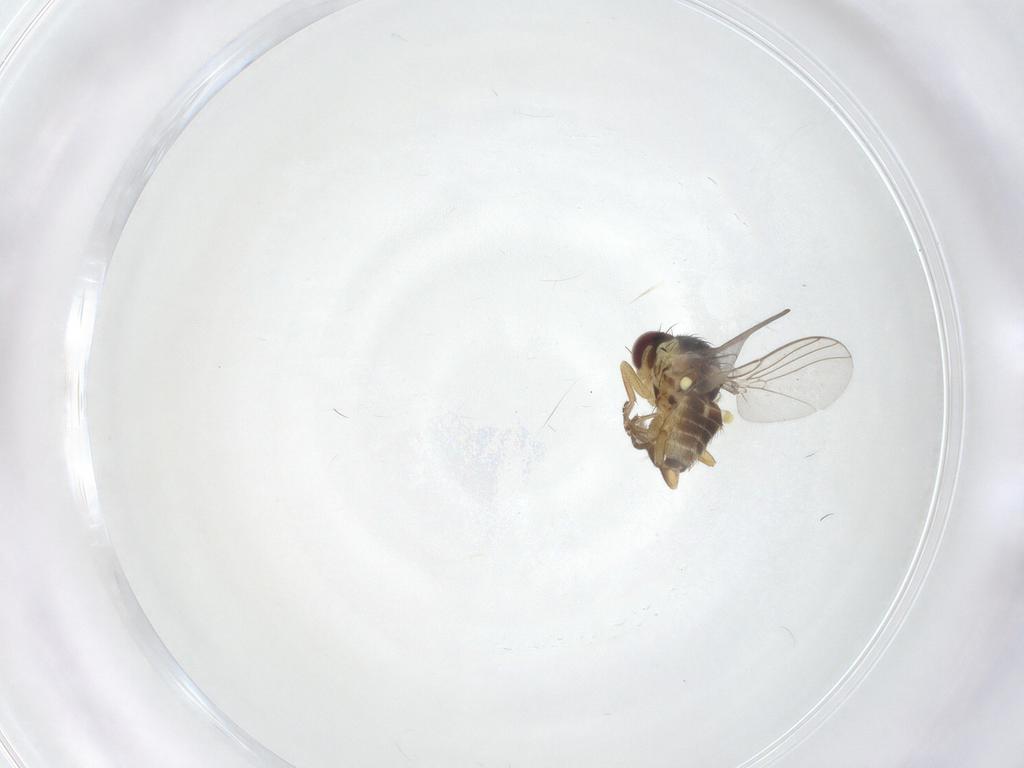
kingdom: Animalia
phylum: Arthropoda
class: Insecta
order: Diptera
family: Agromyzidae
